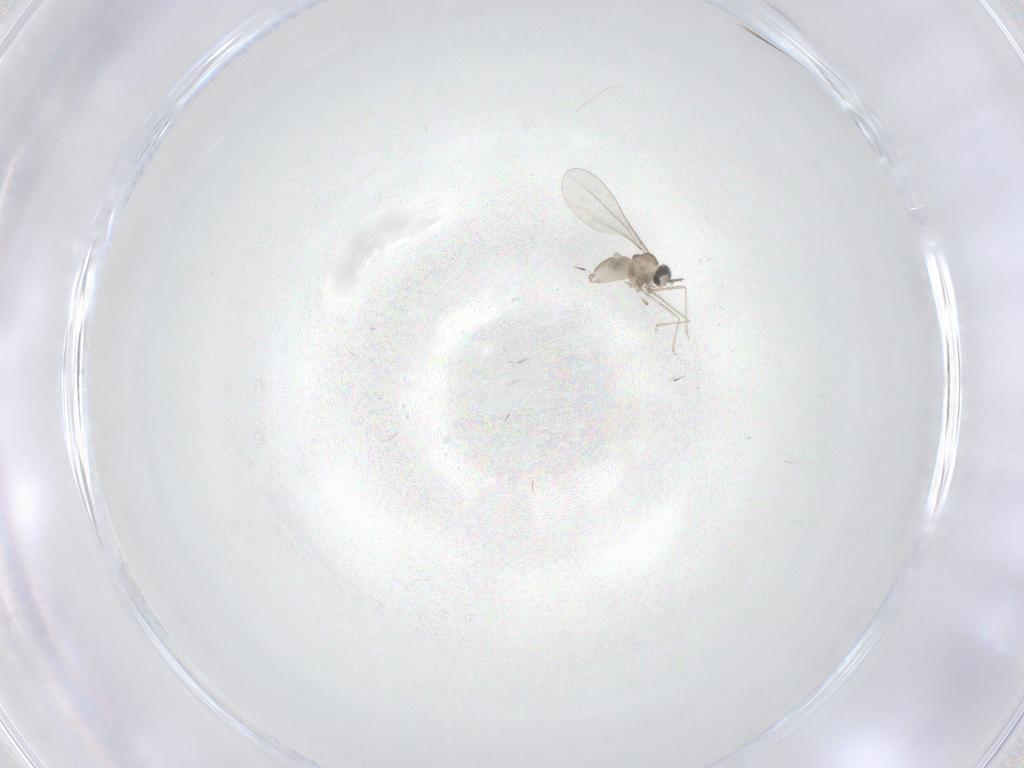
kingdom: Animalia
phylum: Arthropoda
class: Insecta
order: Diptera
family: Cecidomyiidae
